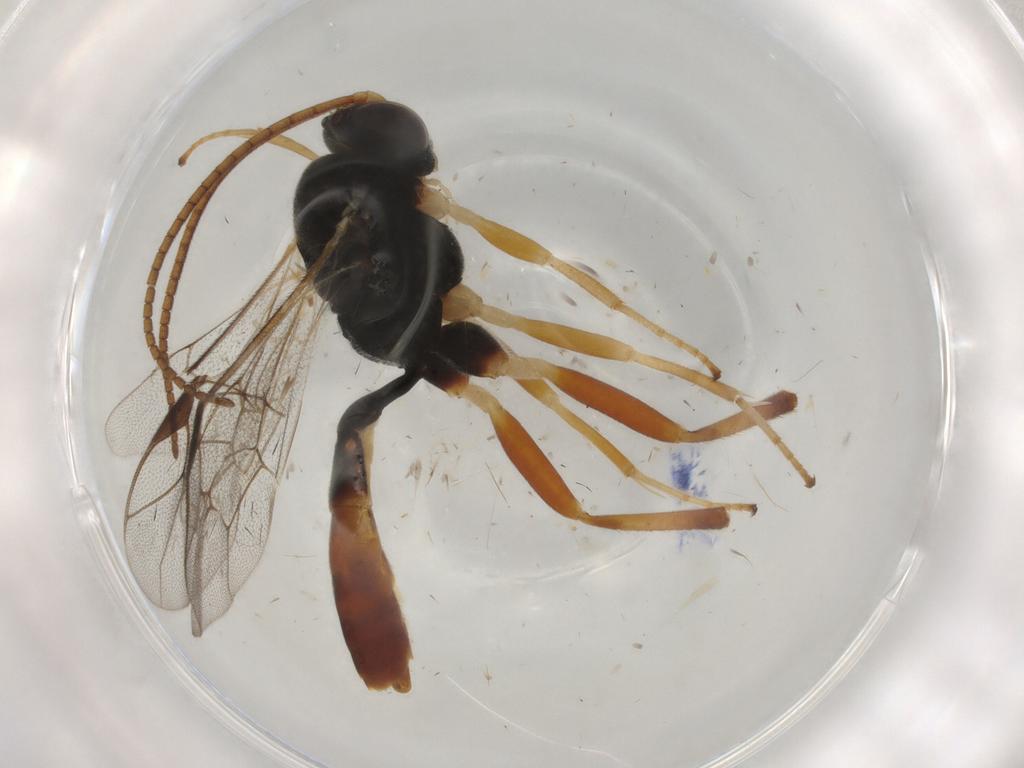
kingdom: Animalia
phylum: Arthropoda
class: Insecta
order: Hymenoptera
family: Ichneumonidae
